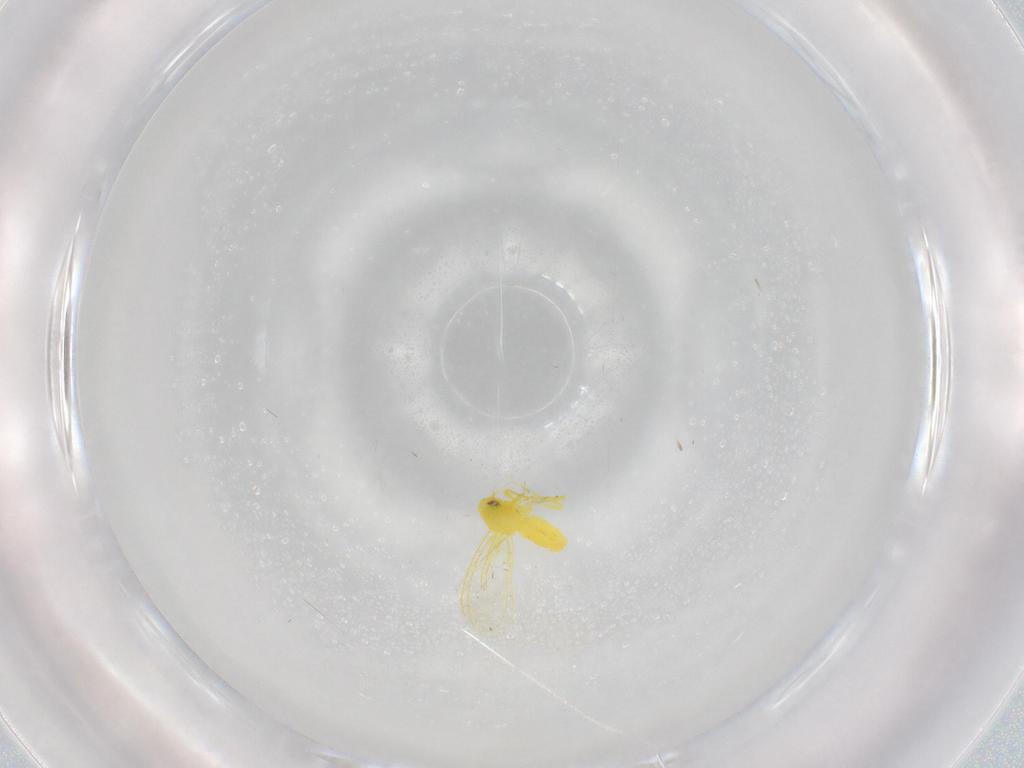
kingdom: Animalia
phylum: Arthropoda
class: Insecta
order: Hemiptera
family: Aleyrodidae
